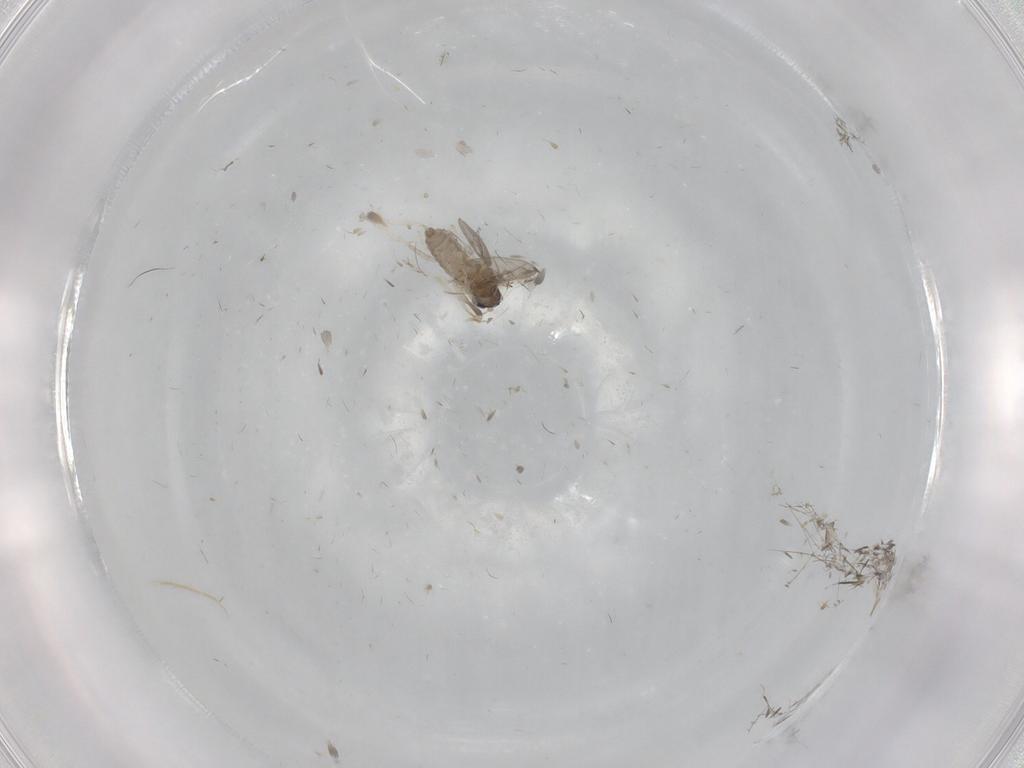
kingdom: Animalia
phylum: Arthropoda
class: Insecta
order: Diptera
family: Cecidomyiidae
